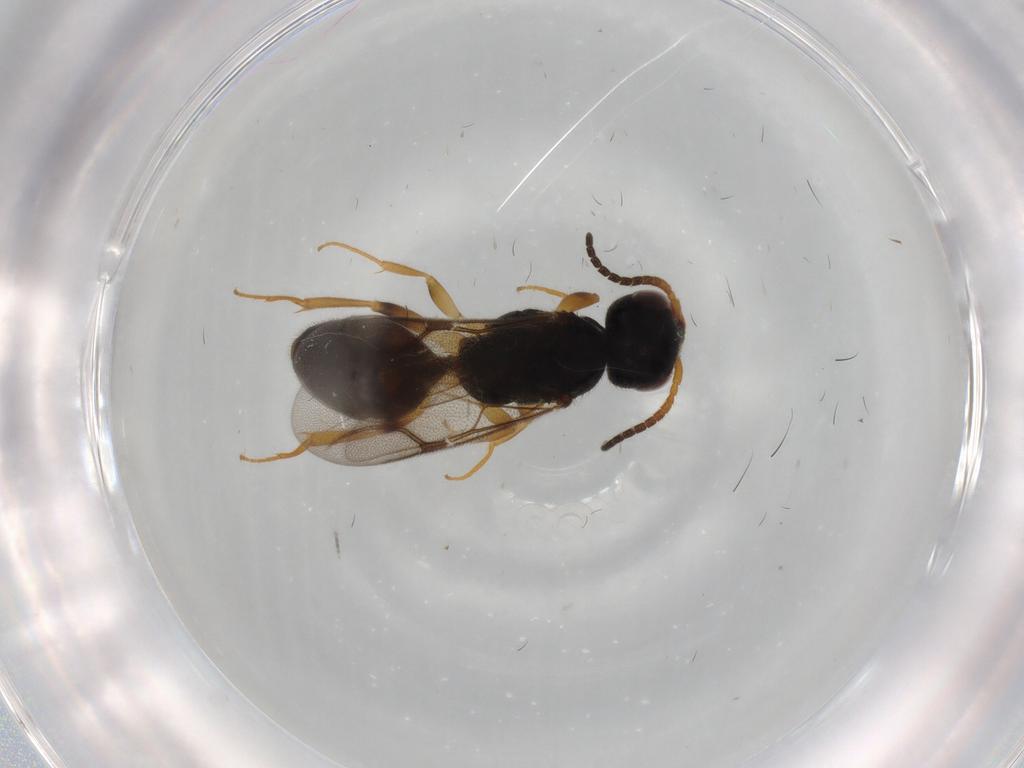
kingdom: Animalia
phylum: Arthropoda
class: Insecta
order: Hymenoptera
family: Bethylidae
